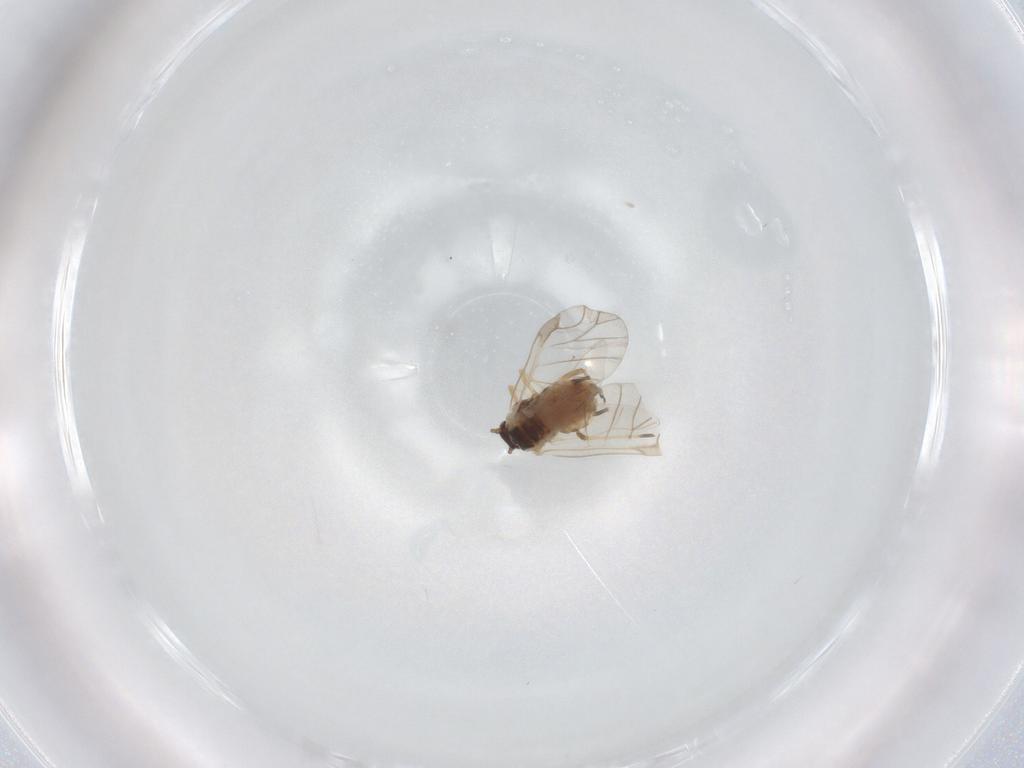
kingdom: Animalia
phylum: Arthropoda
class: Insecta
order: Hemiptera
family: Aphididae
